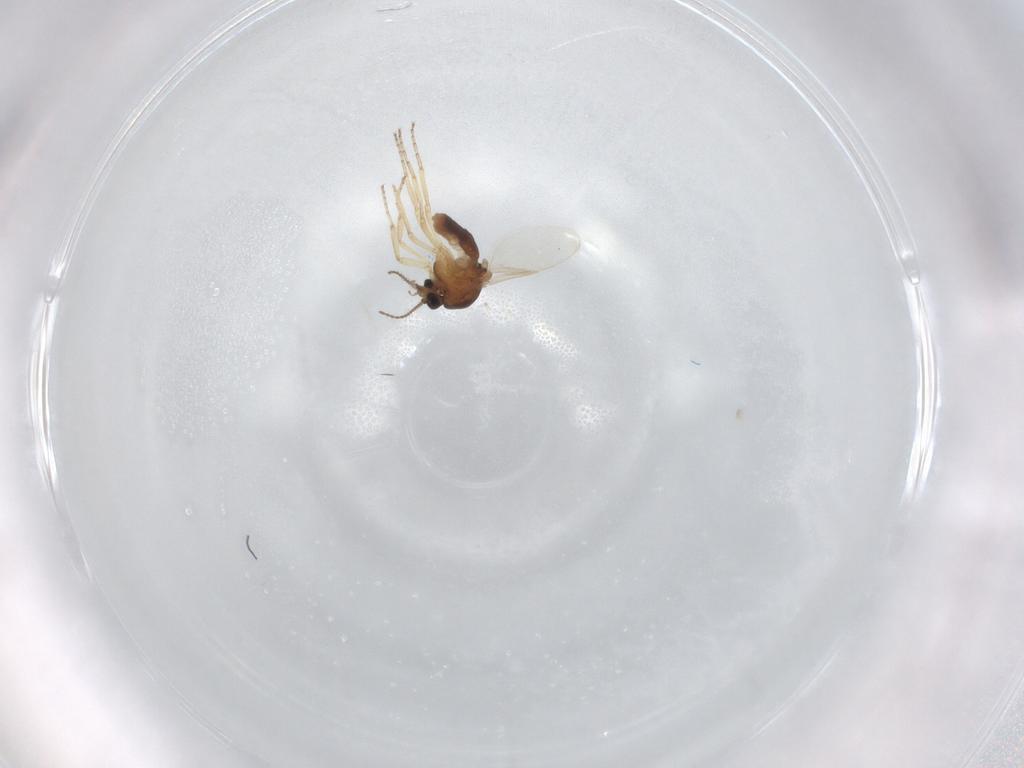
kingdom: Animalia
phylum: Arthropoda
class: Insecta
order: Diptera
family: Ceratopogonidae
